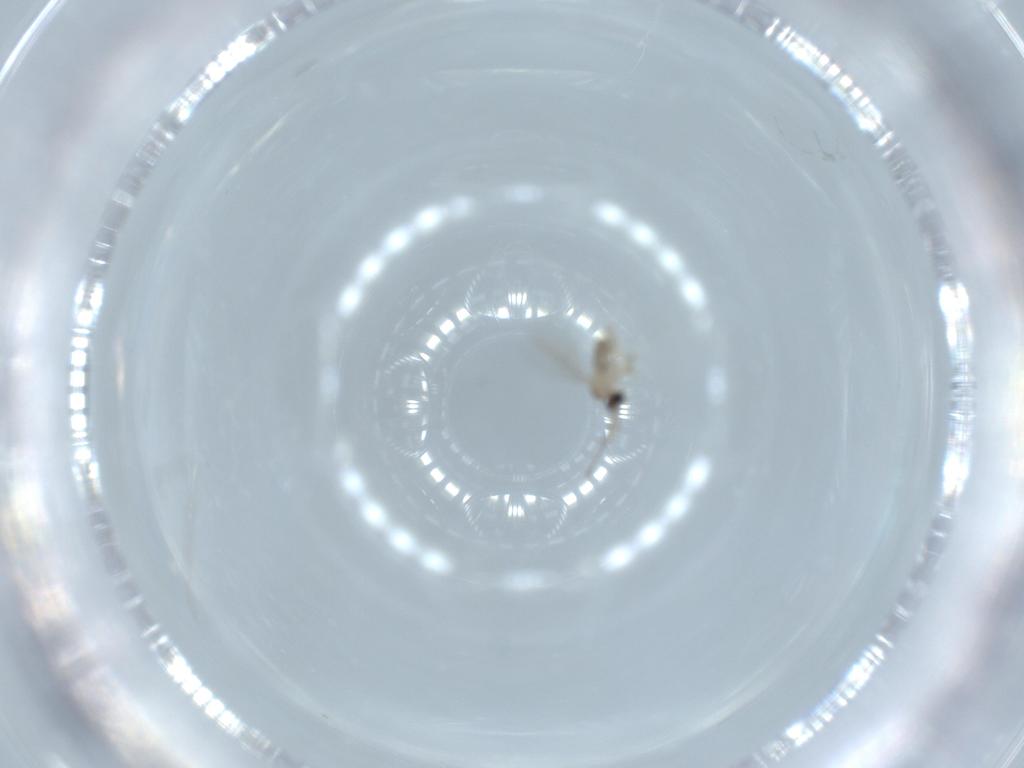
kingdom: Animalia
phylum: Arthropoda
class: Insecta
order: Diptera
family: Cecidomyiidae
